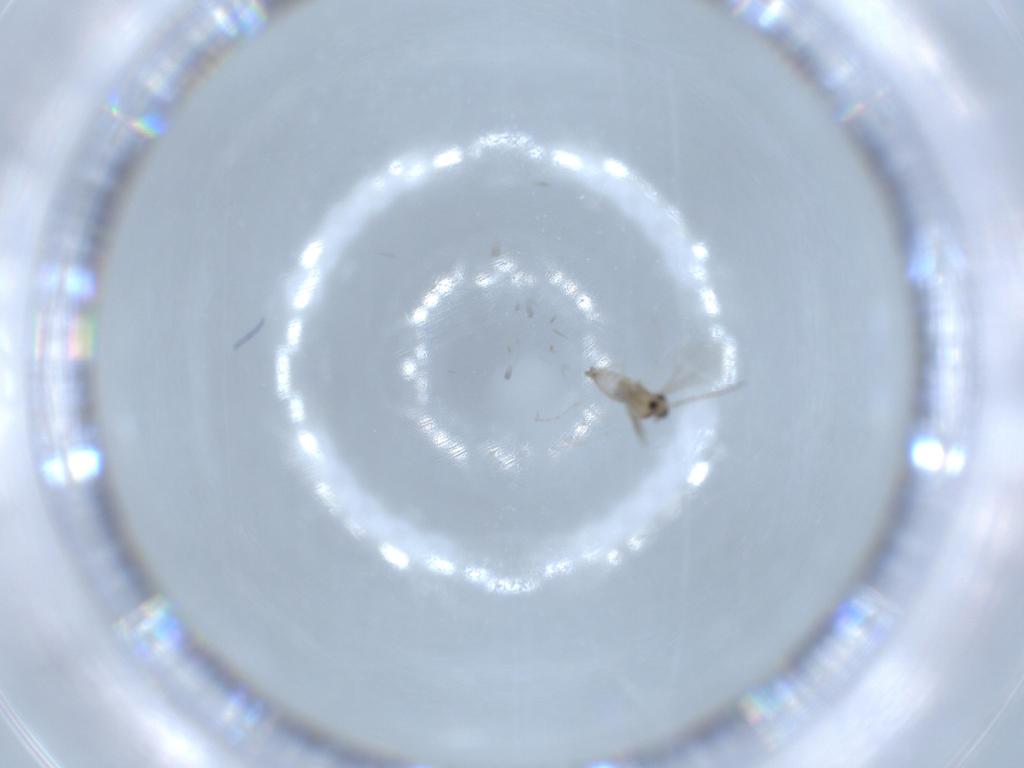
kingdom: Animalia
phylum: Arthropoda
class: Insecta
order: Diptera
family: Cecidomyiidae
